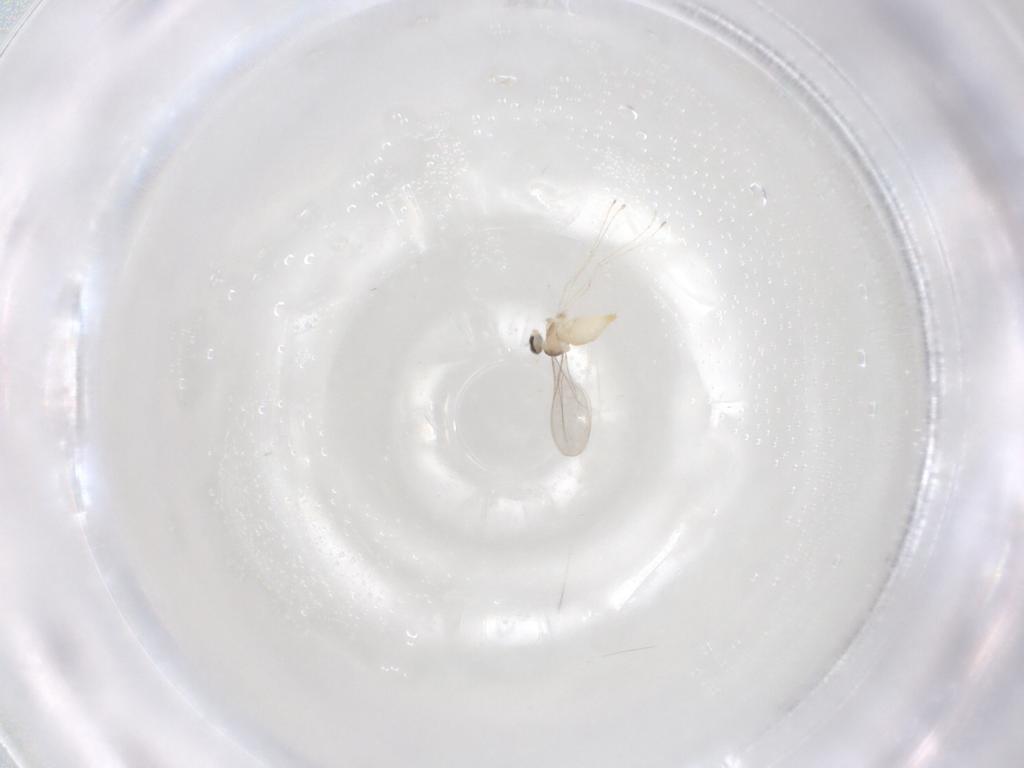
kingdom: Animalia
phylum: Arthropoda
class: Insecta
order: Diptera
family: Cecidomyiidae
